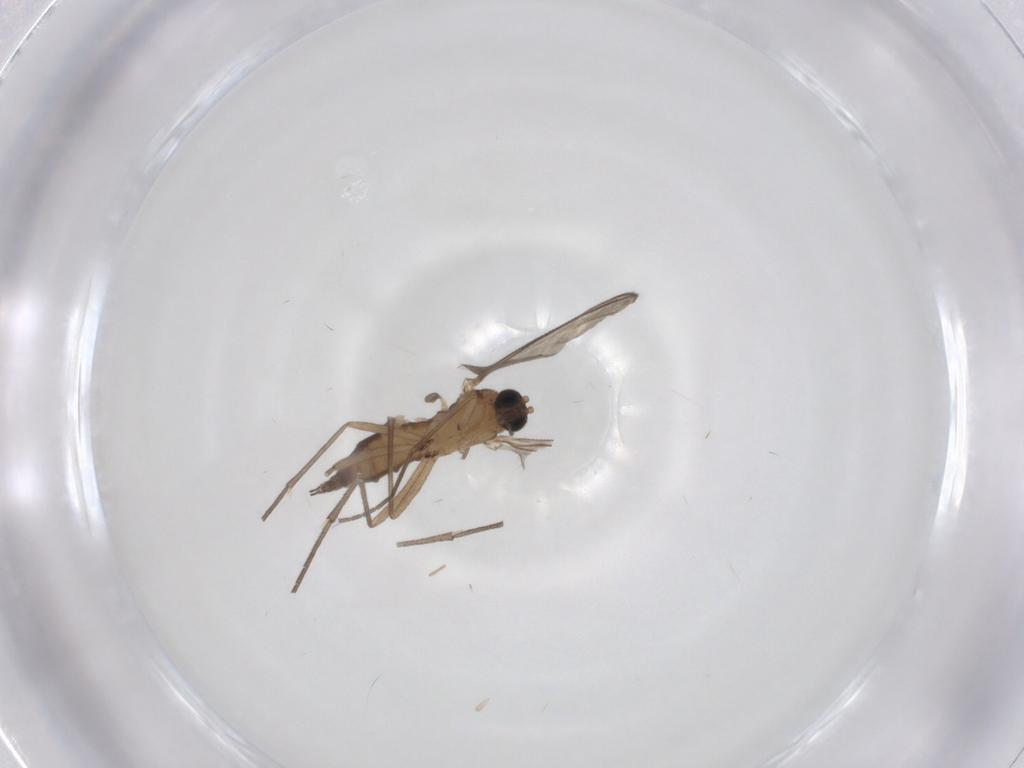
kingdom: Animalia
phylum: Arthropoda
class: Insecta
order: Diptera
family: Sciaridae
